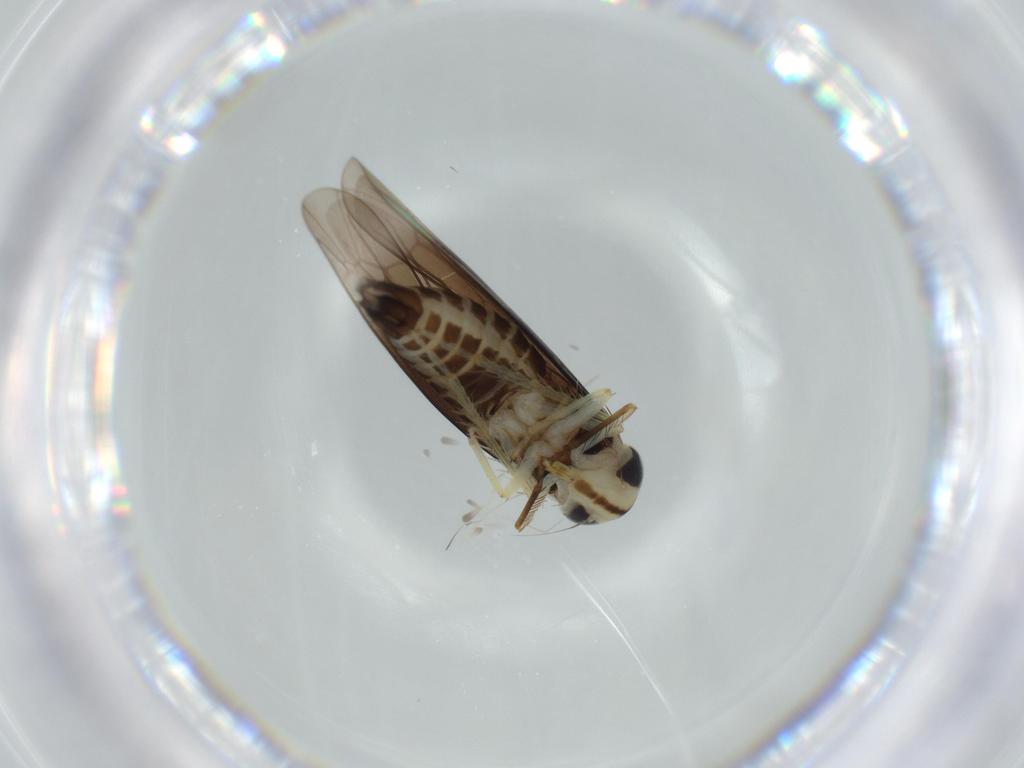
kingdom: Animalia
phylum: Arthropoda
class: Insecta
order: Hemiptera
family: Cicadellidae
